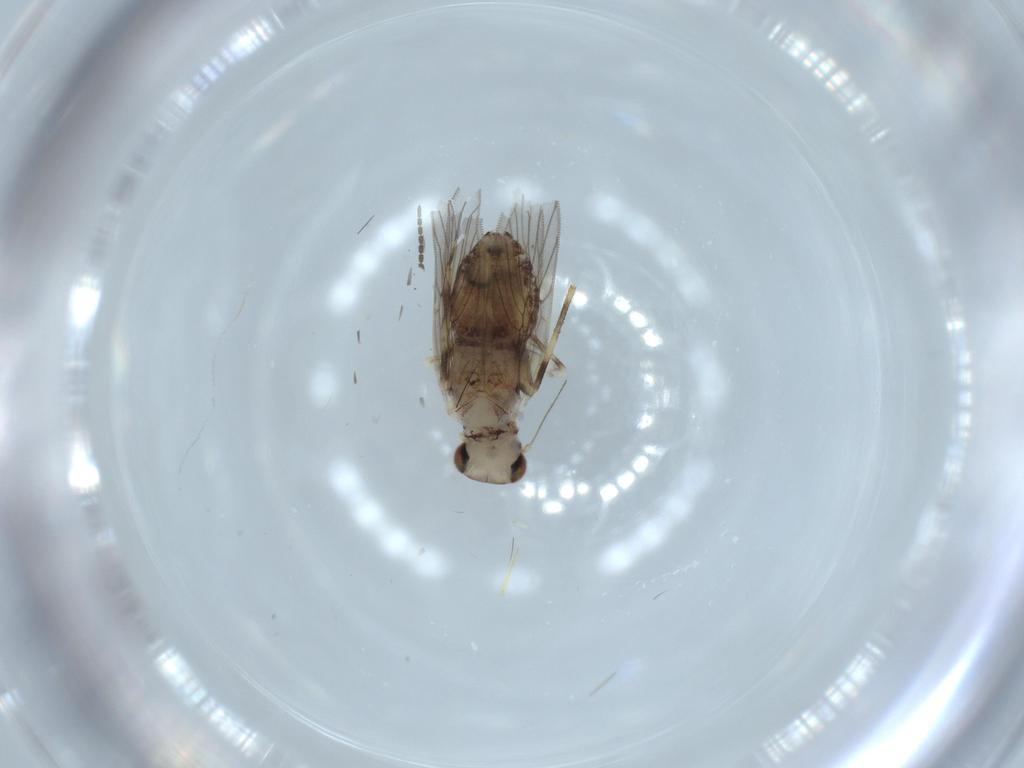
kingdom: Animalia
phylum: Arthropoda
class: Insecta
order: Psocodea
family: Lepidopsocidae
